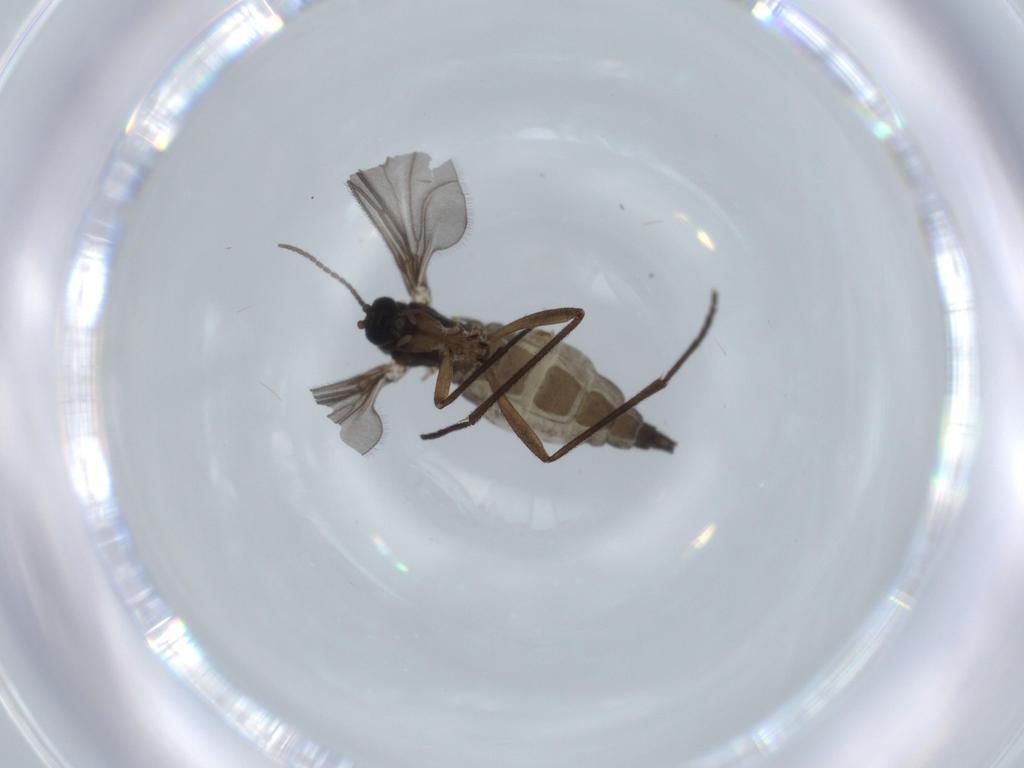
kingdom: Animalia
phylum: Arthropoda
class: Insecta
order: Diptera
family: Sciaridae
